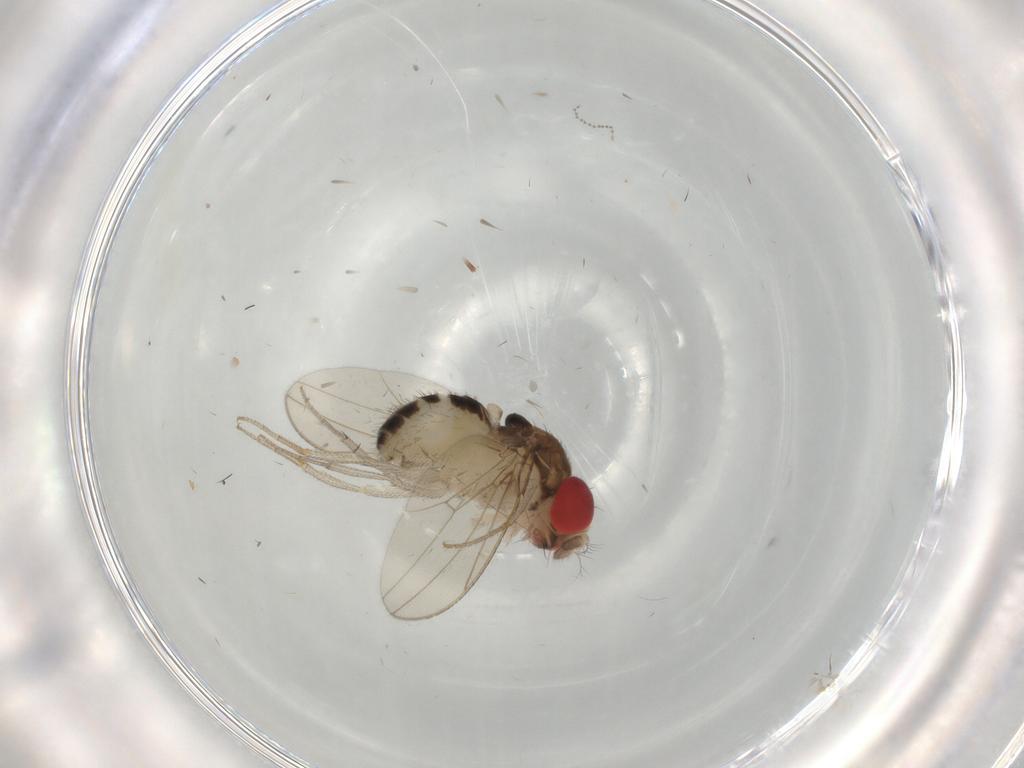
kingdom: Animalia
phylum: Arthropoda
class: Insecta
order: Diptera
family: Drosophilidae
